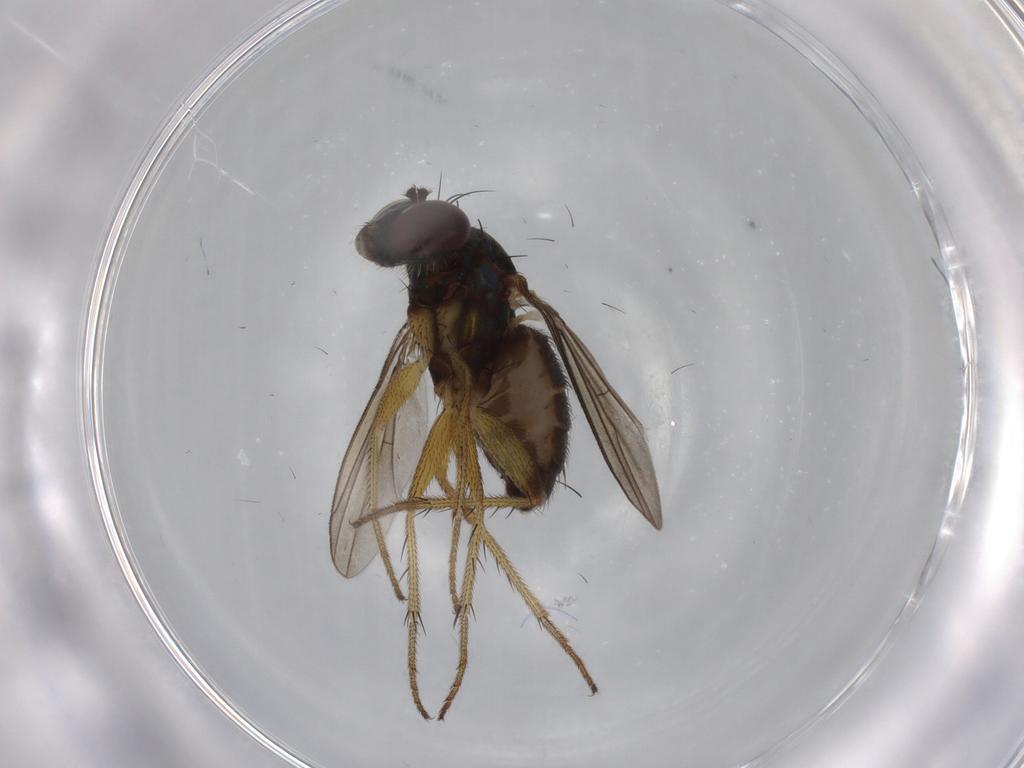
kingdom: Animalia
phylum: Arthropoda
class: Insecta
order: Diptera
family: Dolichopodidae
